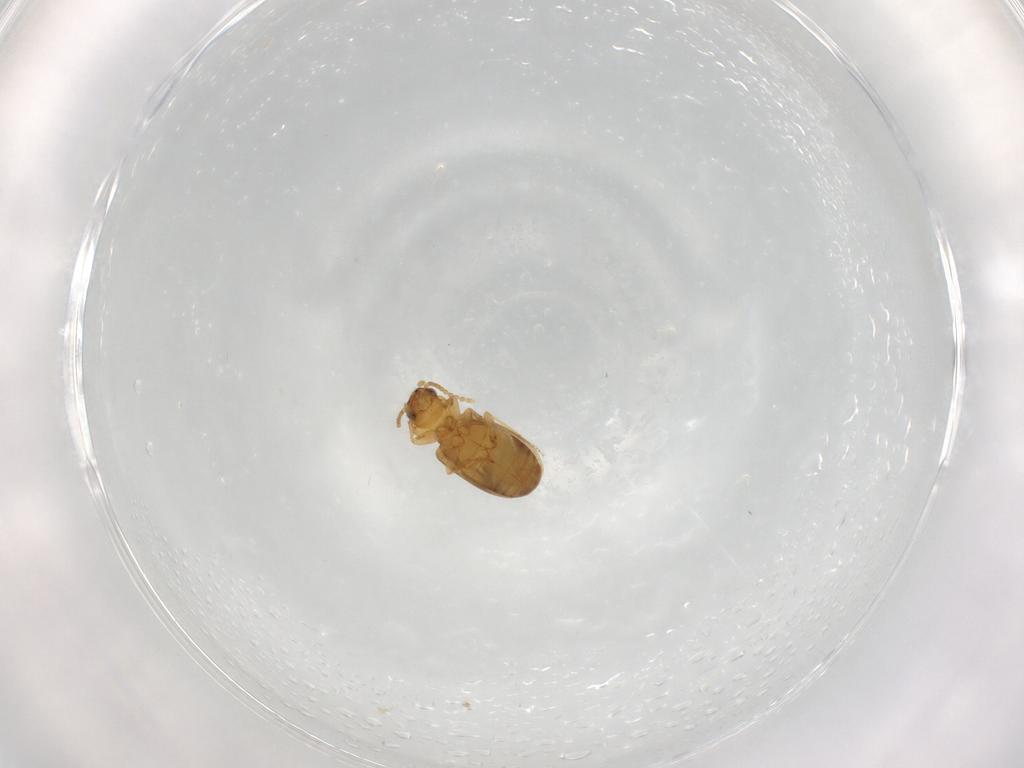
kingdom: Animalia
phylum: Arthropoda
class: Insecta
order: Coleoptera
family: Carabidae
